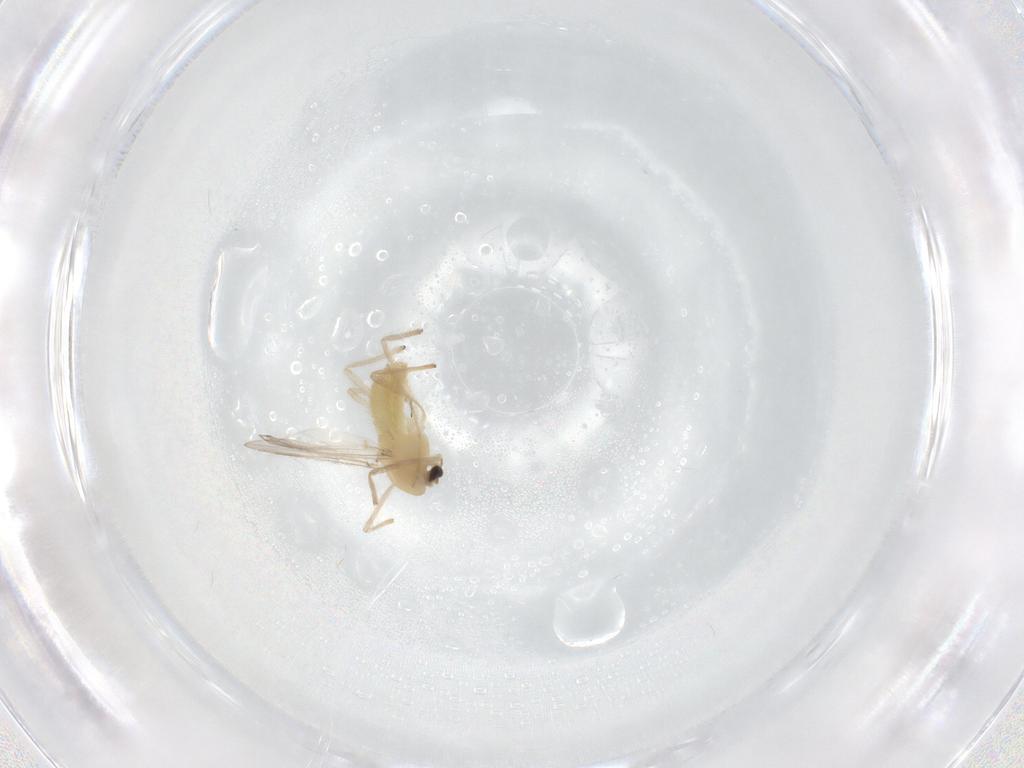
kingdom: Animalia
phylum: Arthropoda
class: Insecta
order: Diptera
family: Chironomidae
